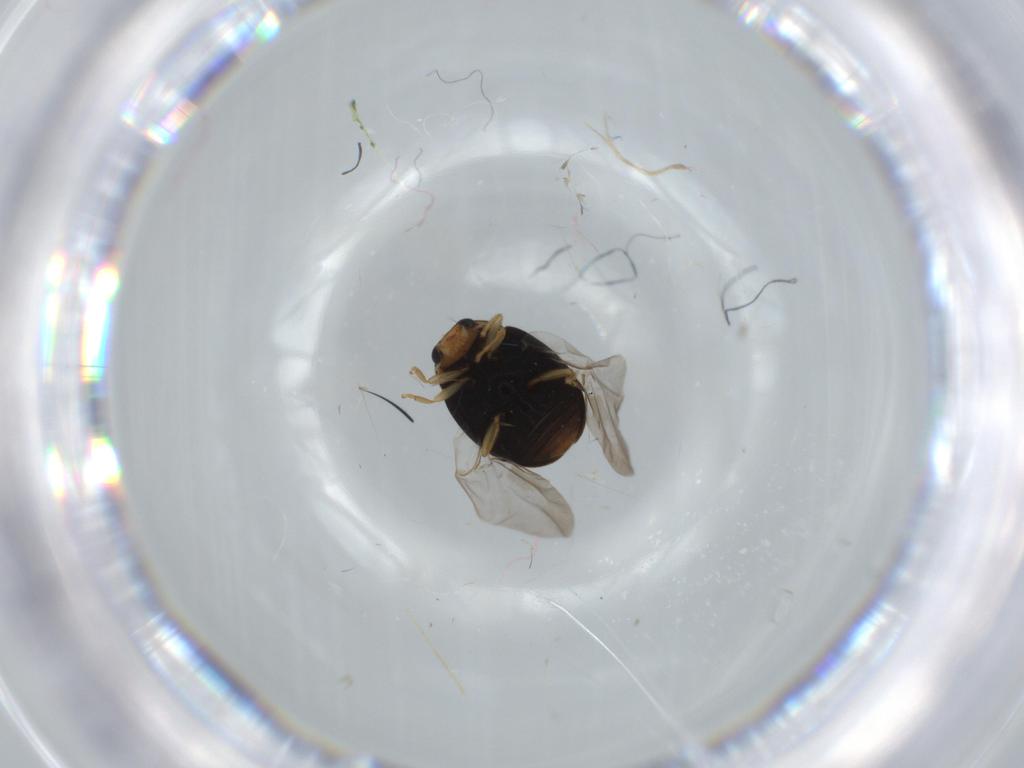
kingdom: Animalia
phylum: Arthropoda
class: Insecta
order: Coleoptera
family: Coccinellidae
